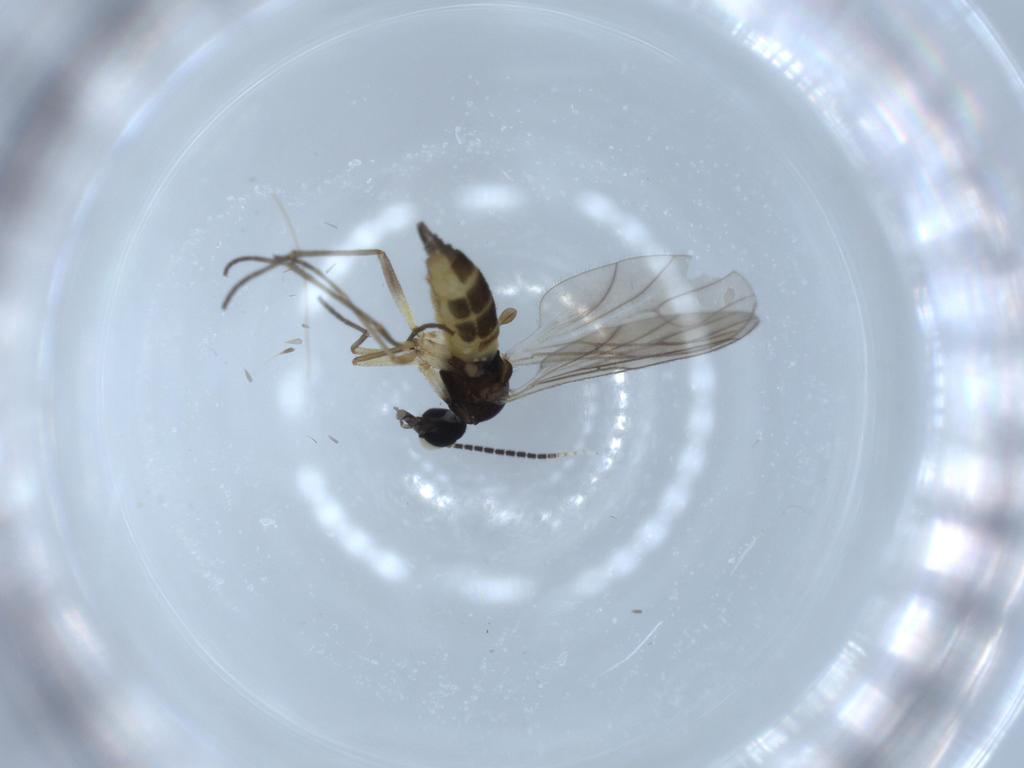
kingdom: Animalia
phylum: Arthropoda
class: Insecta
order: Diptera
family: Sciaridae
